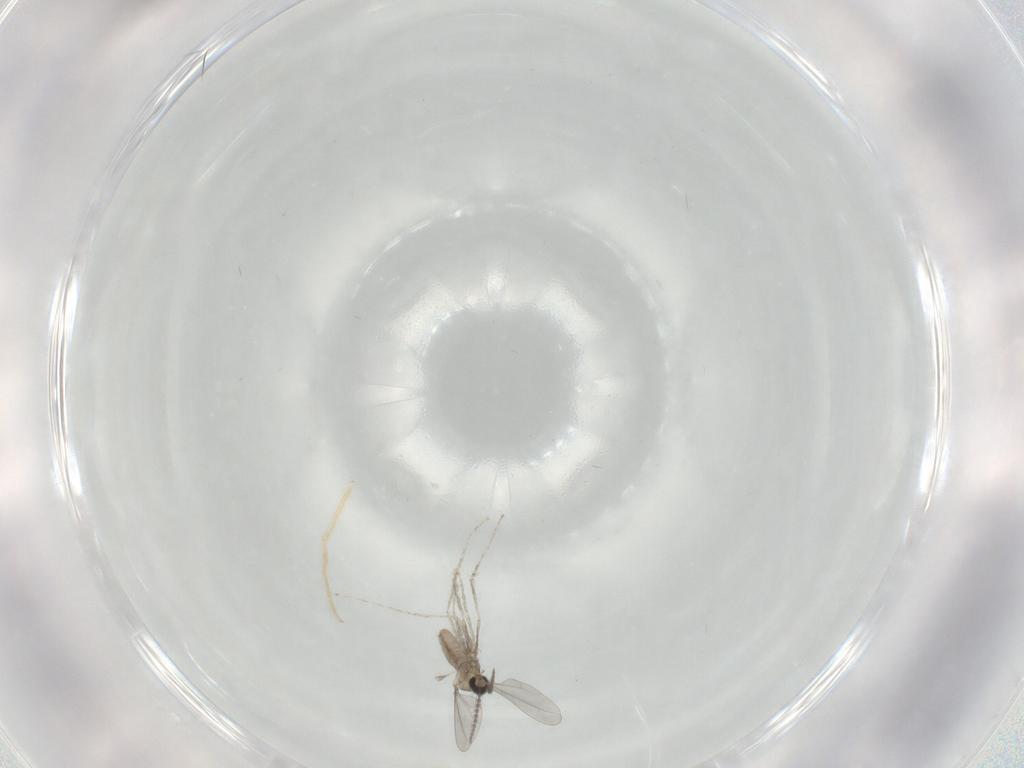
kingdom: Animalia
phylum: Arthropoda
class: Insecta
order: Diptera
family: Chironomidae
